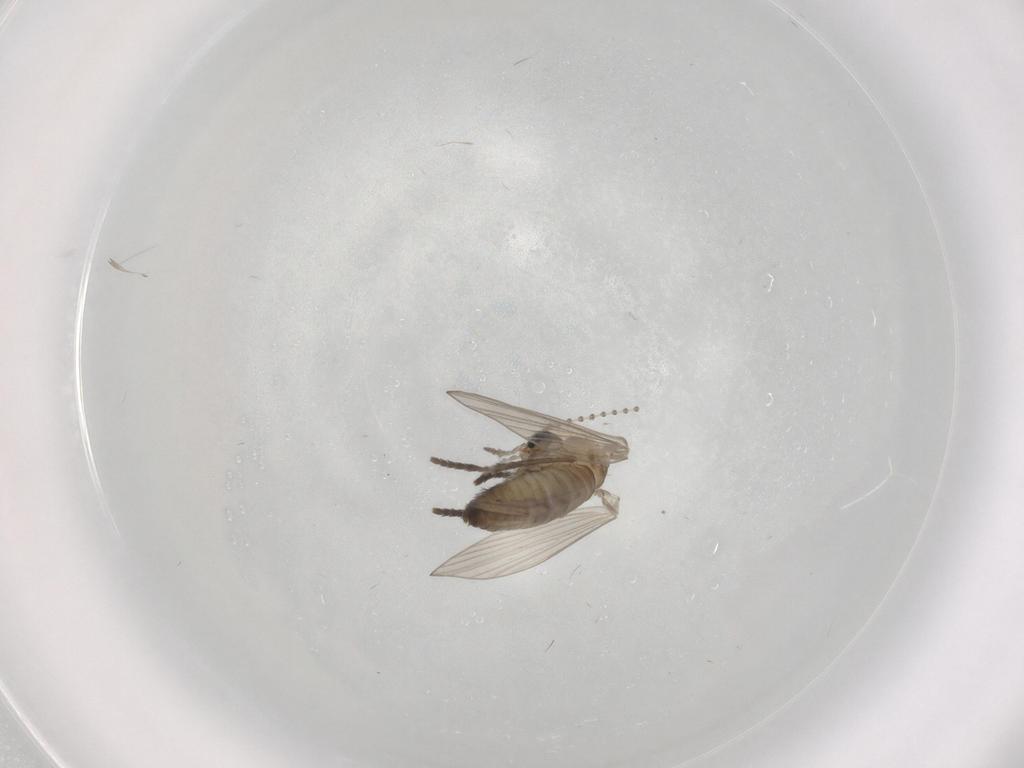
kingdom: Animalia
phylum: Arthropoda
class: Insecta
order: Diptera
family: Psychodidae
